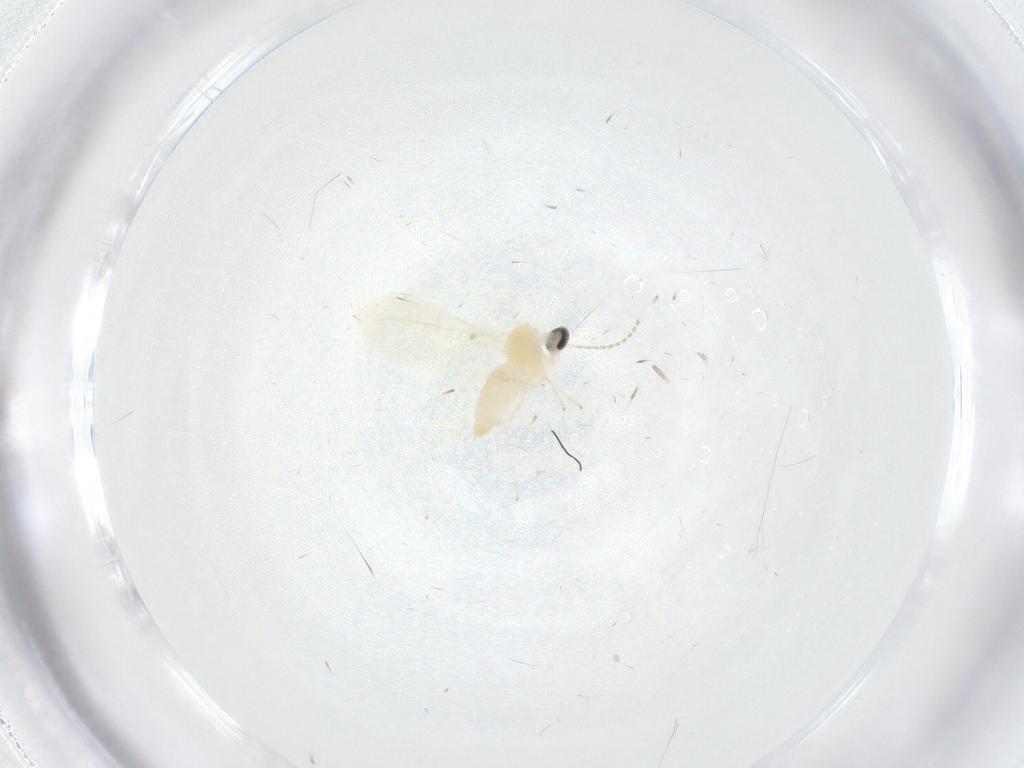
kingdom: Animalia
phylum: Arthropoda
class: Insecta
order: Diptera
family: Cecidomyiidae
